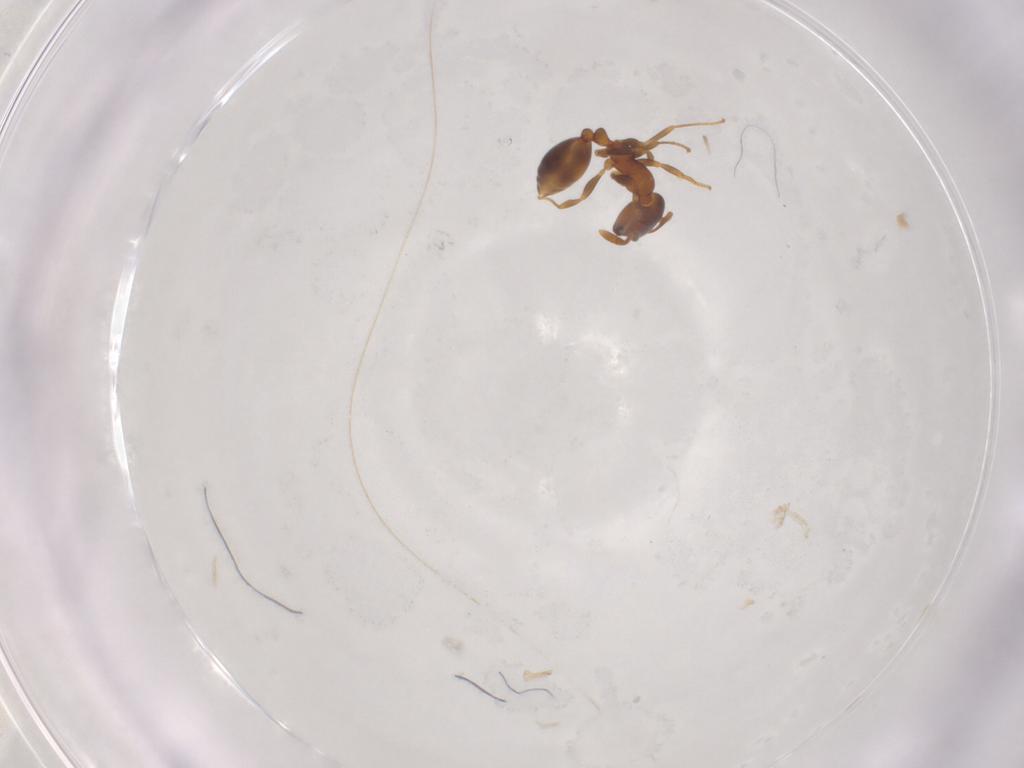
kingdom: Animalia
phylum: Arthropoda
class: Insecta
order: Hymenoptera
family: Formicidae
